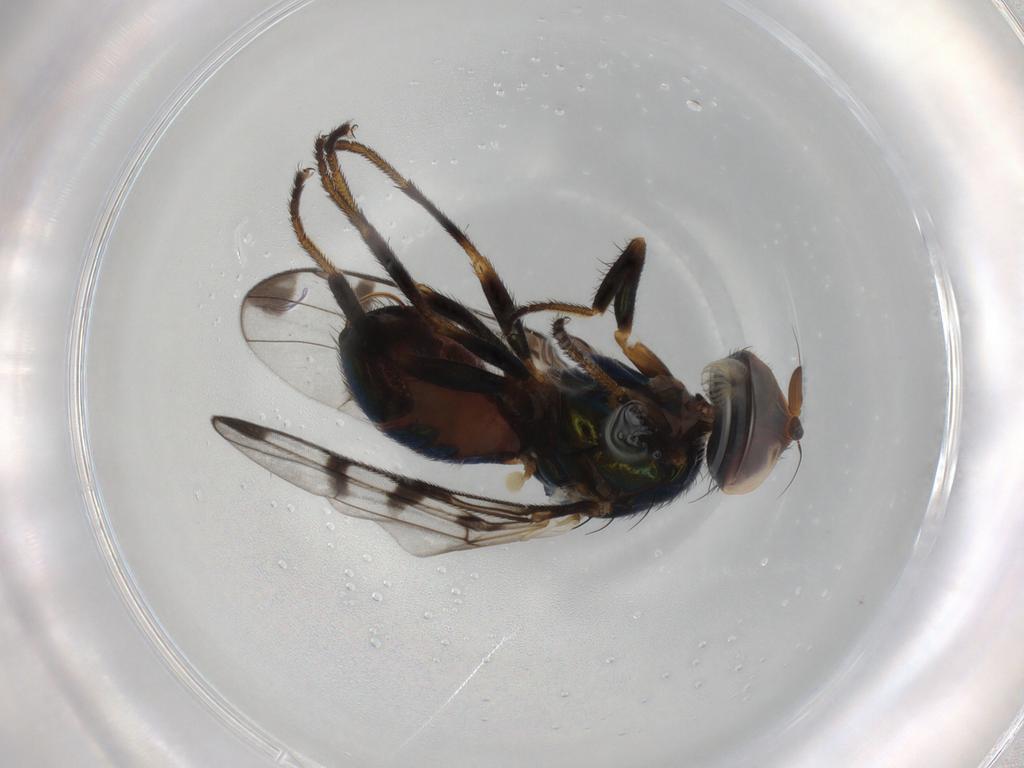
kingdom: Animalia
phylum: Arthropoda
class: Insecta
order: Diptera
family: Platystomatidae
